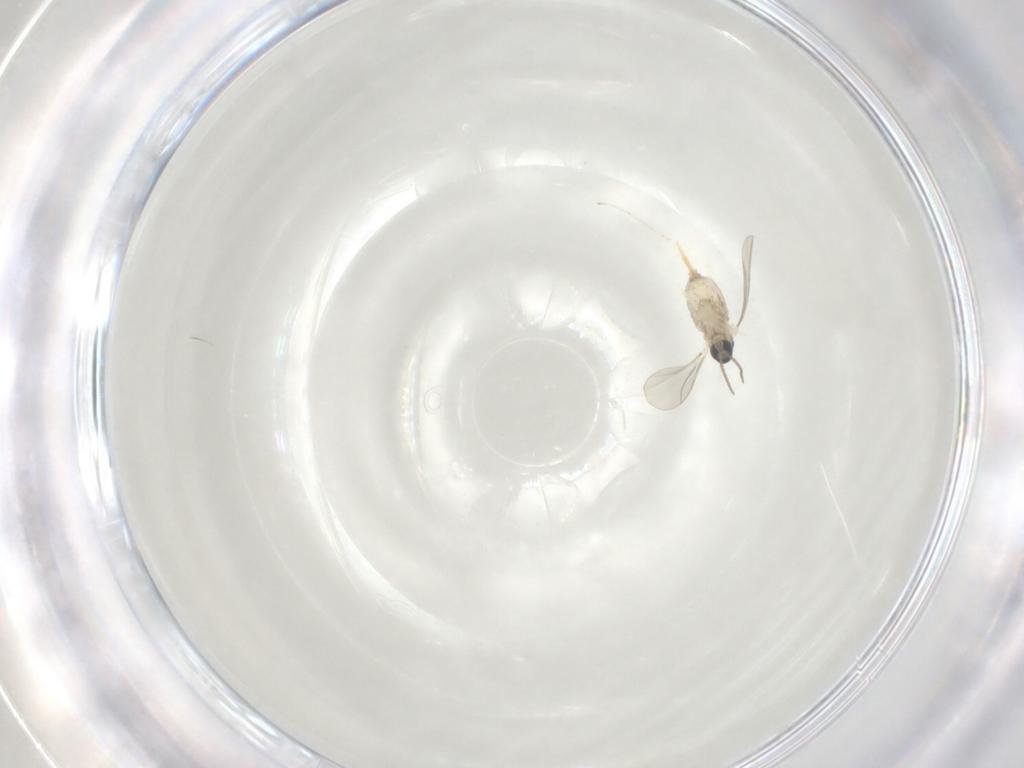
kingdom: Animalia
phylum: Arthropoda
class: Insecta
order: Diptera
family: Cecidomyiidae
